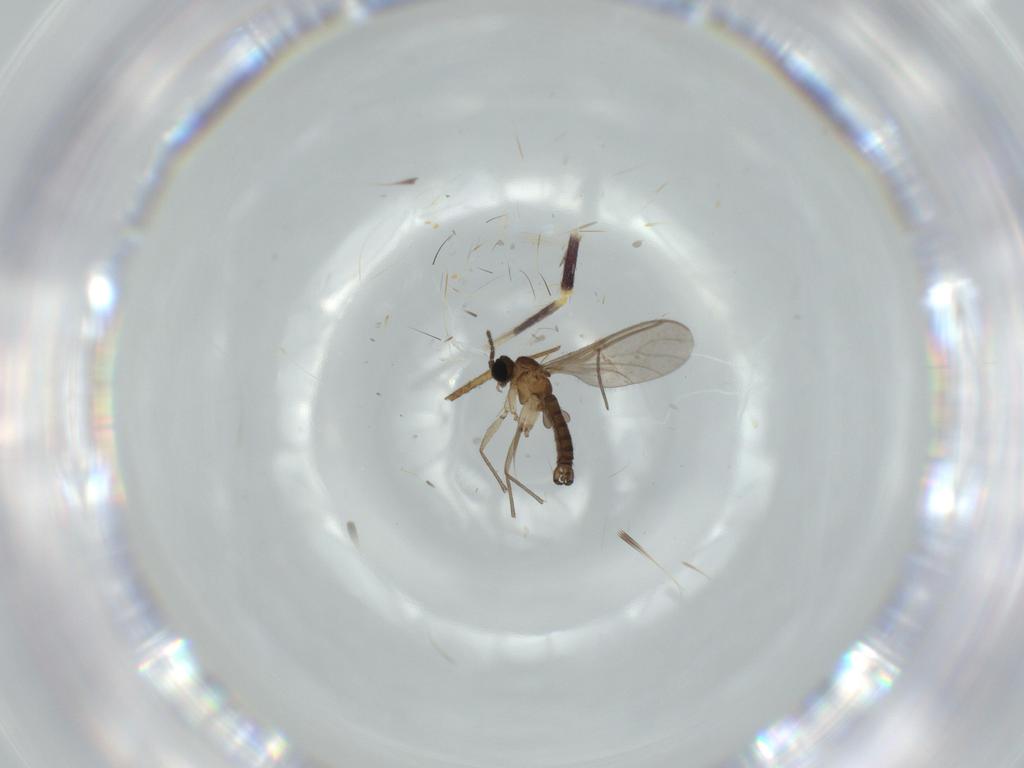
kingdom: Animalia
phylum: Arthropoda
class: Insecta
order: Diptera
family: Sciaridae
